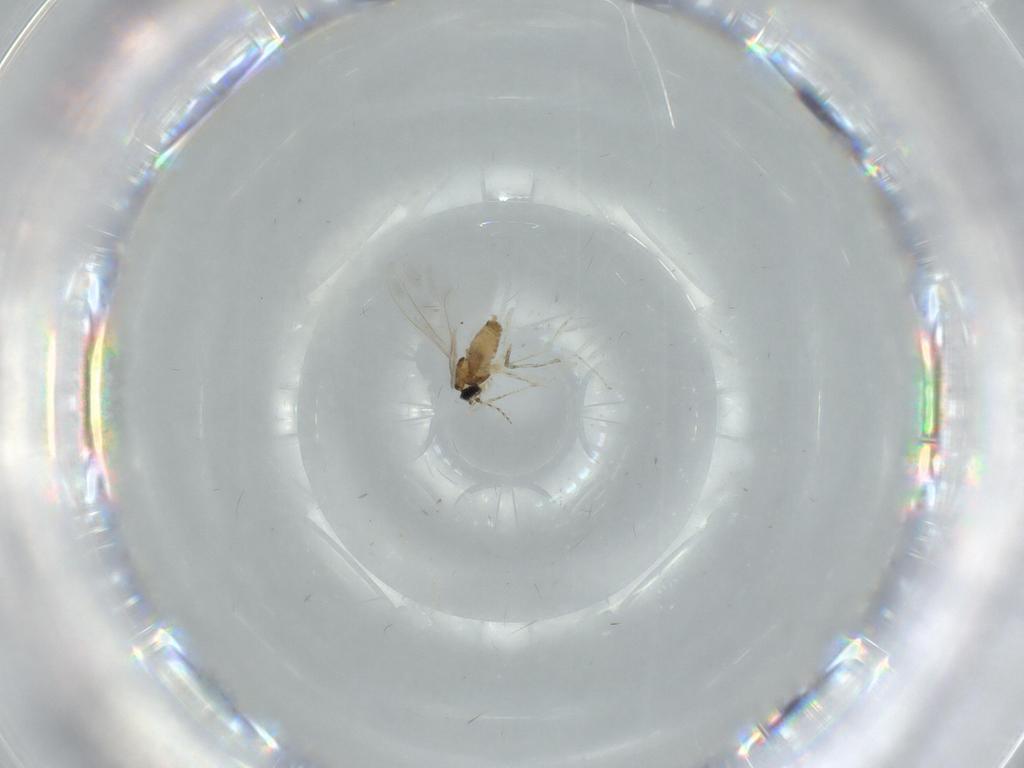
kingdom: Animalia
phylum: Arthropoda
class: Insecta
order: Diptera
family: Cecidomyiidae
